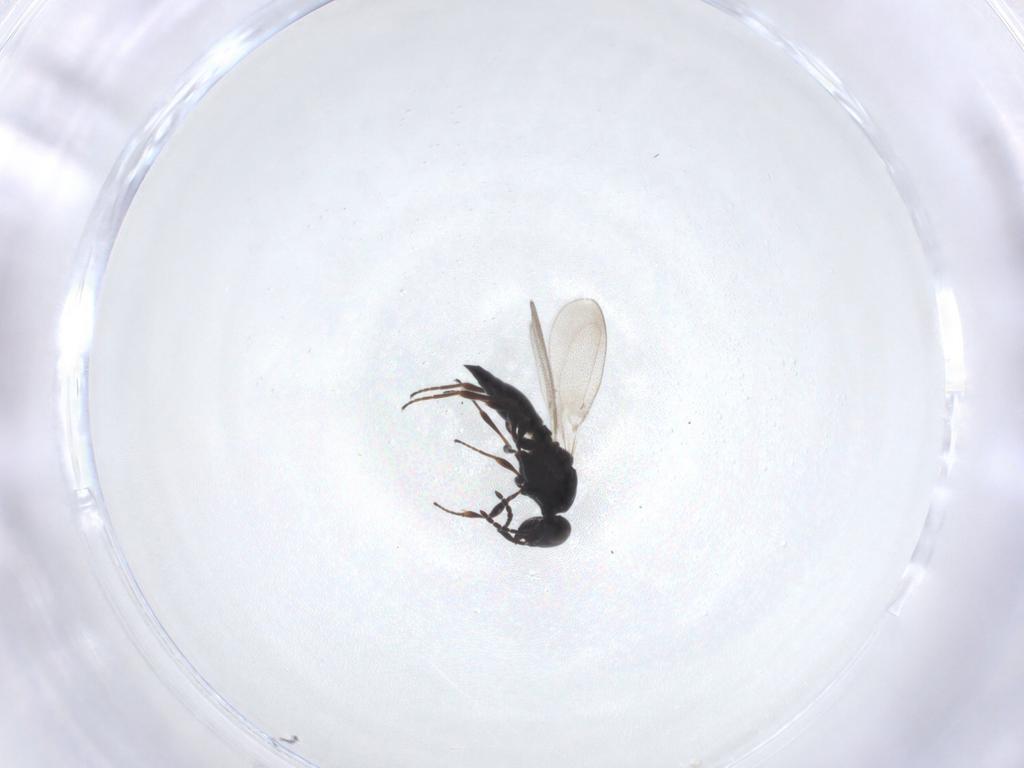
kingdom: Animalia
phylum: Arthropoda
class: Insecta
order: Hymenoptera
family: Platygastridae
